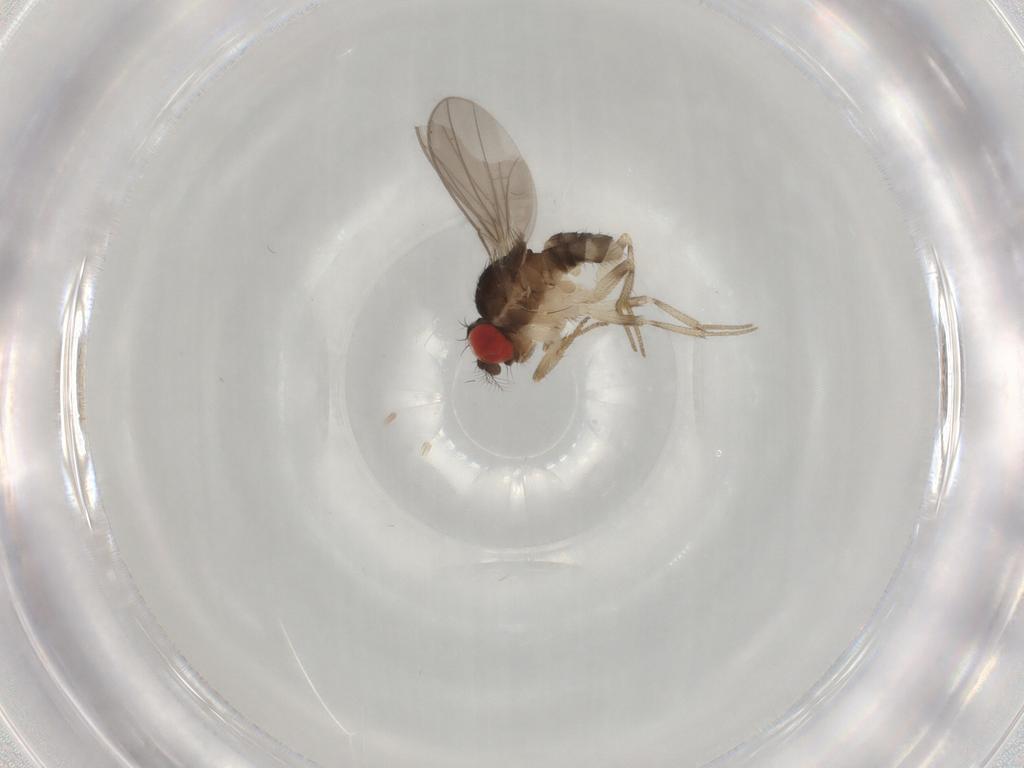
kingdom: Animalia
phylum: Arthropoda
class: Insecta
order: Diptera
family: Drosophilidae
